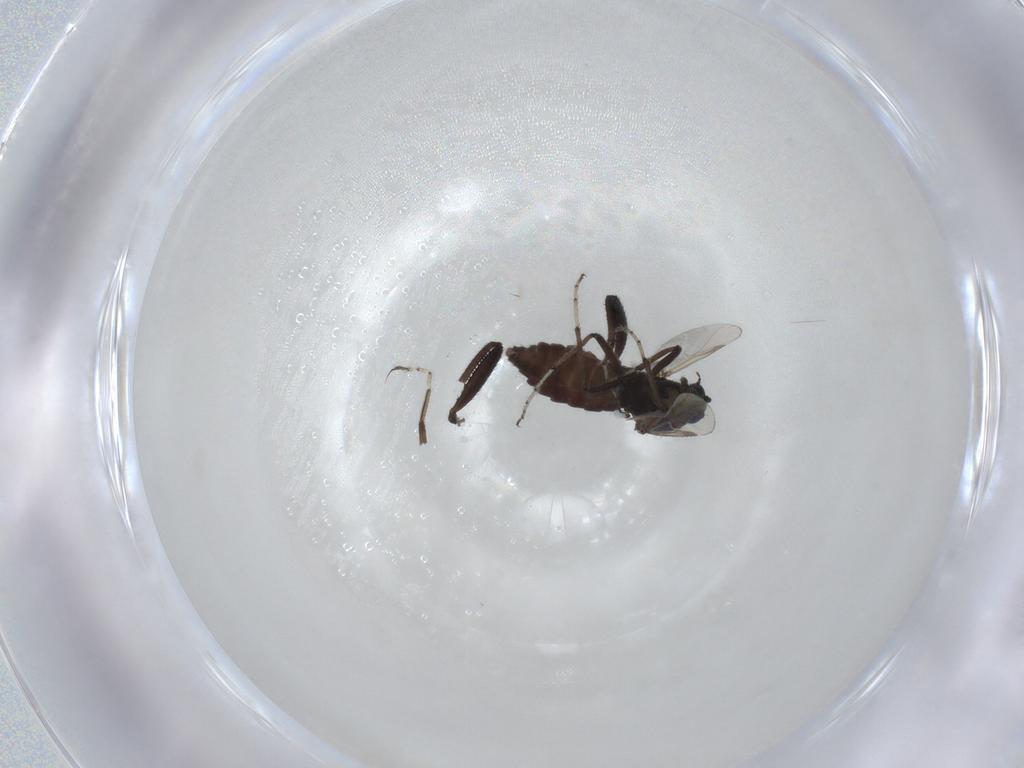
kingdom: Animalia
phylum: Arthropoda
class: Insecta
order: Diptera
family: Ceratopogonidae
